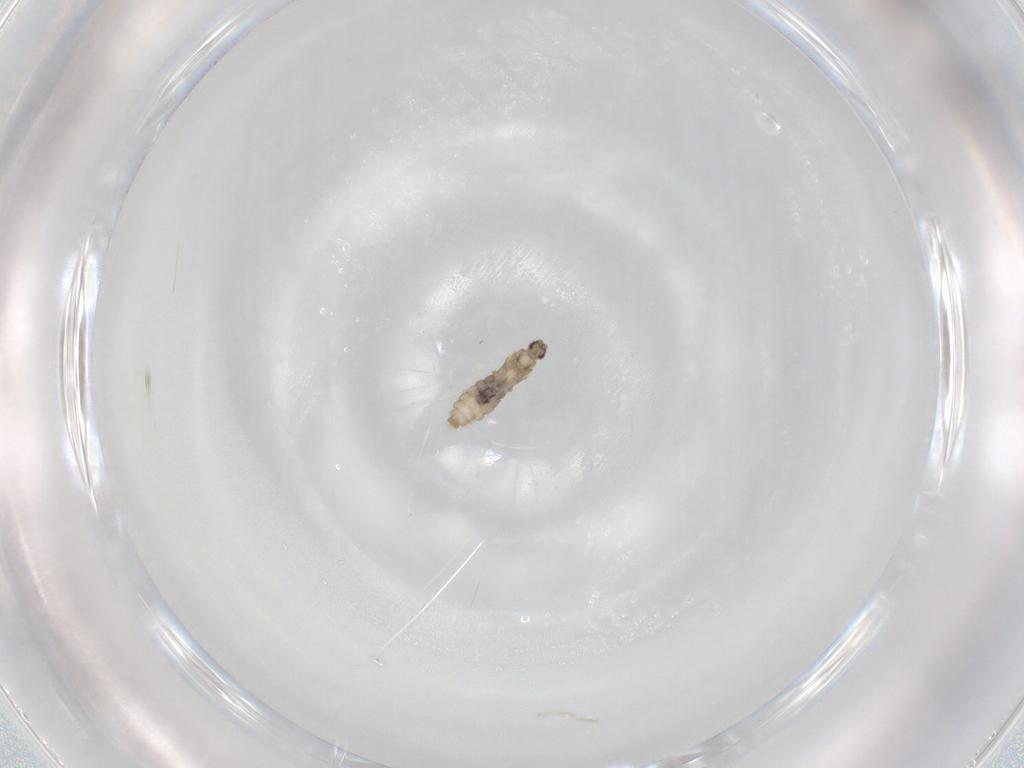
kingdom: Animalia
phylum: Arthropoda
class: Insecta
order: Diptera
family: Cecidomyiidae
